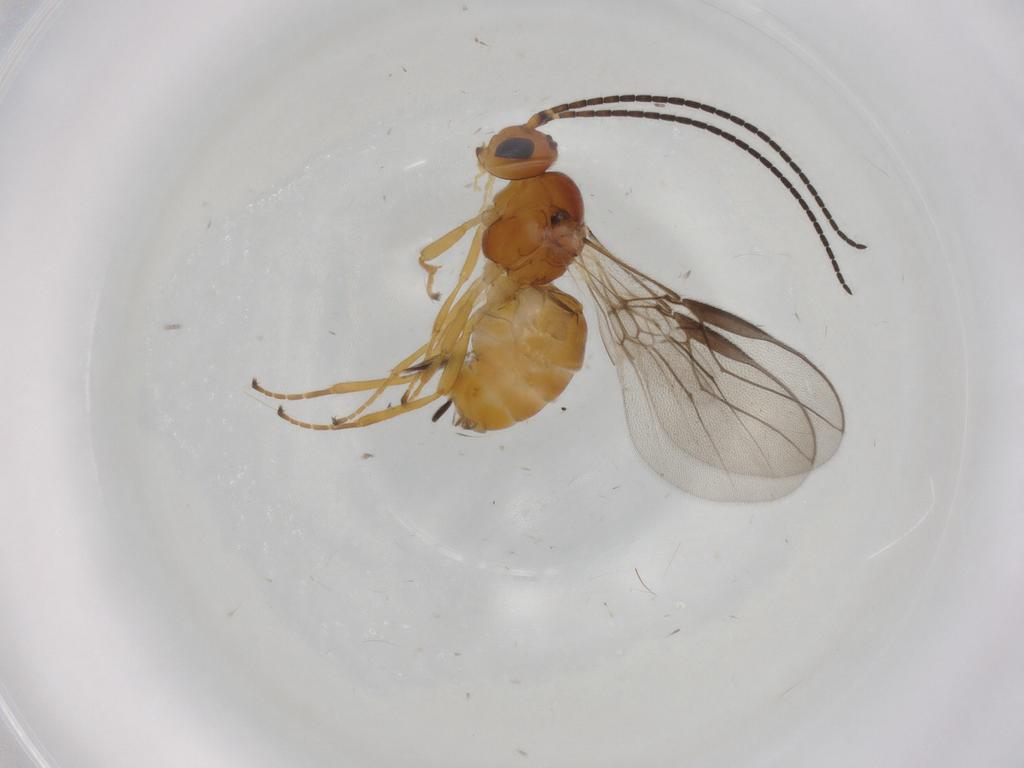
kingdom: Animalia
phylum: Arthropoda
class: Insecta
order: Hymenoptera
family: Braconidae
